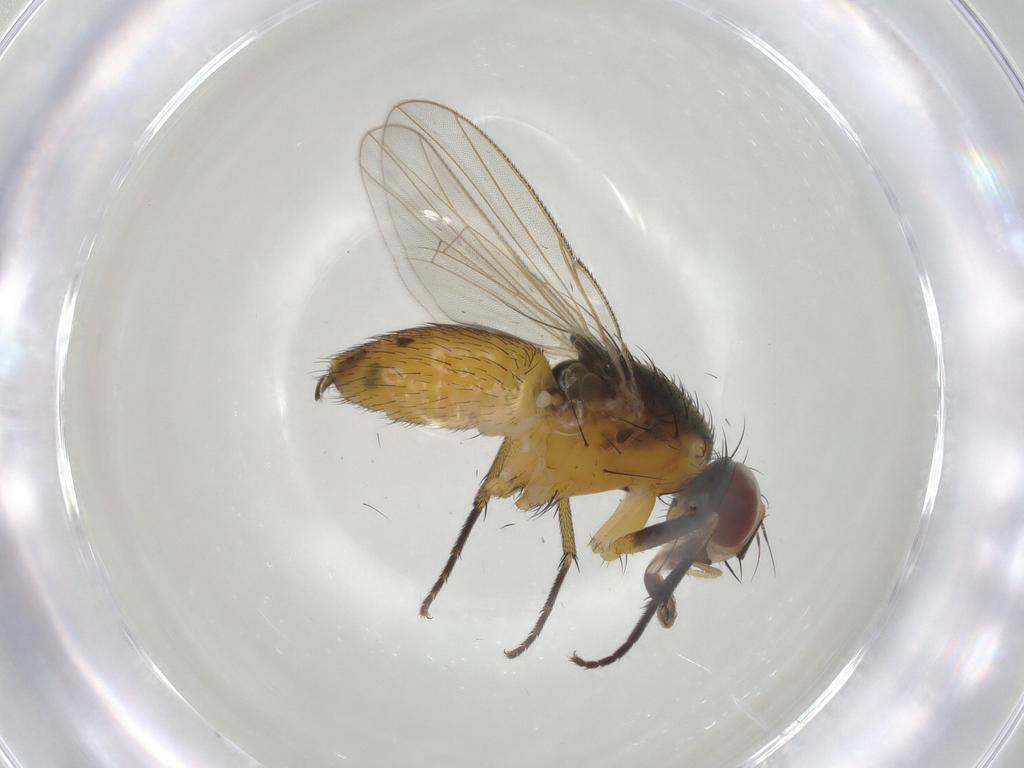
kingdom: Animalia
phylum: Arthropoda
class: Insecta
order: Diptera
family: Muscidae
